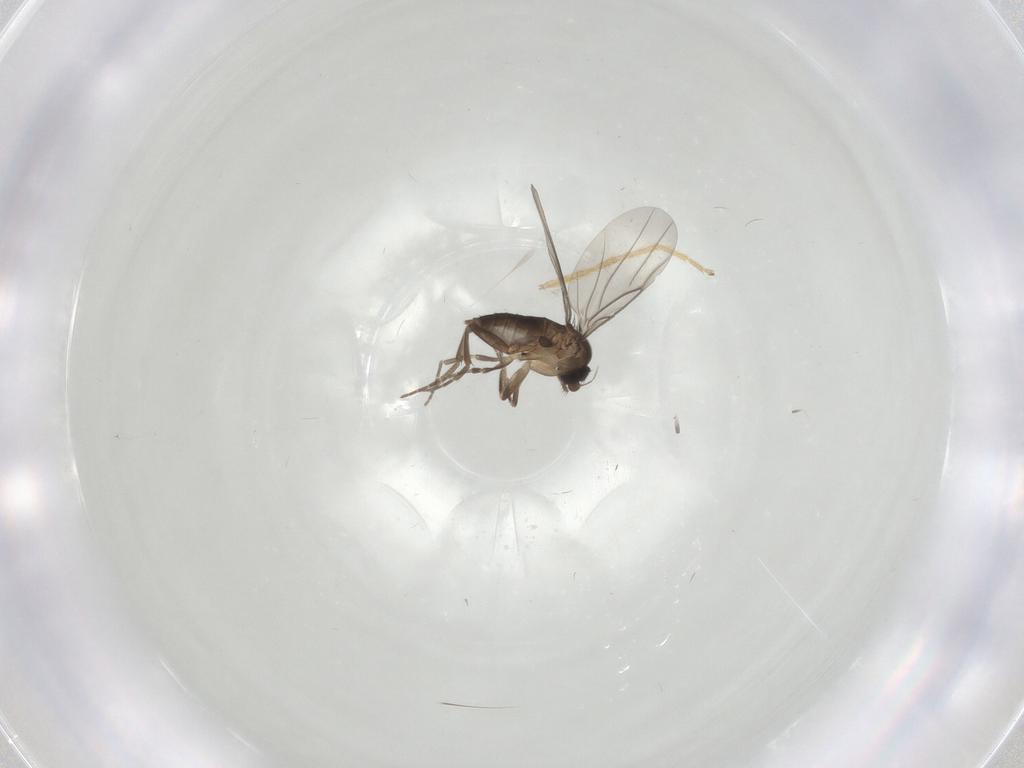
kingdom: Animalia
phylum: Arthropoda
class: Insecta
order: Diptera
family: Chironomidae
